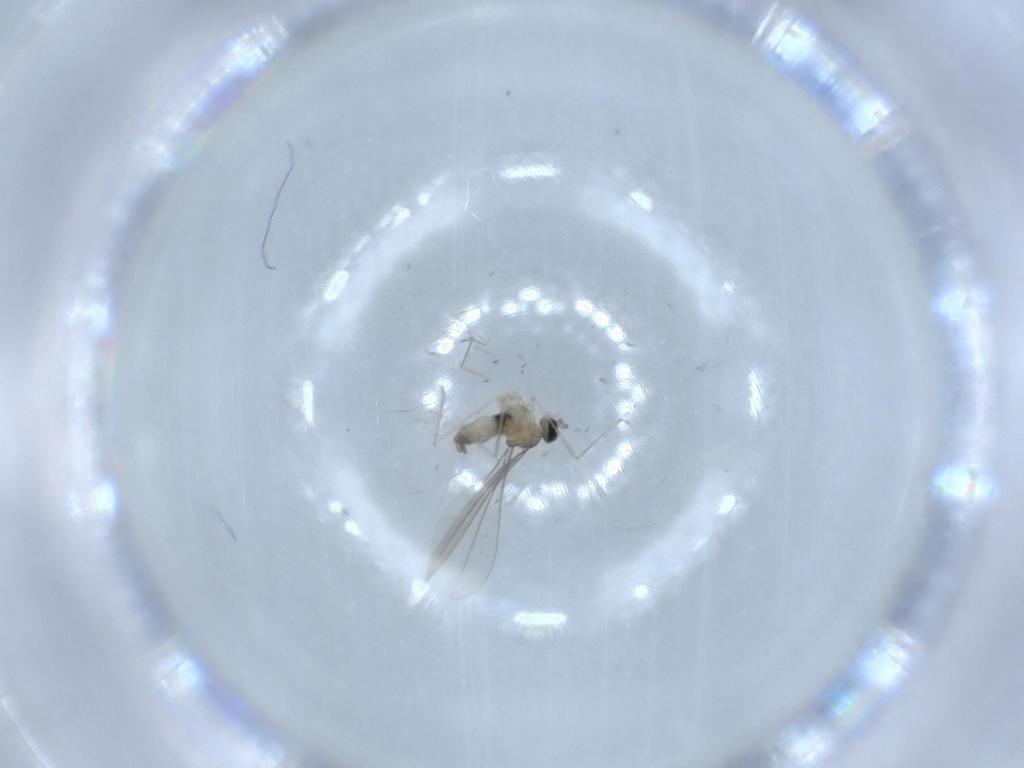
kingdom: Animalia
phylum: Arthropoda
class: Insecta
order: Diptera
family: Cecidomyiidae
